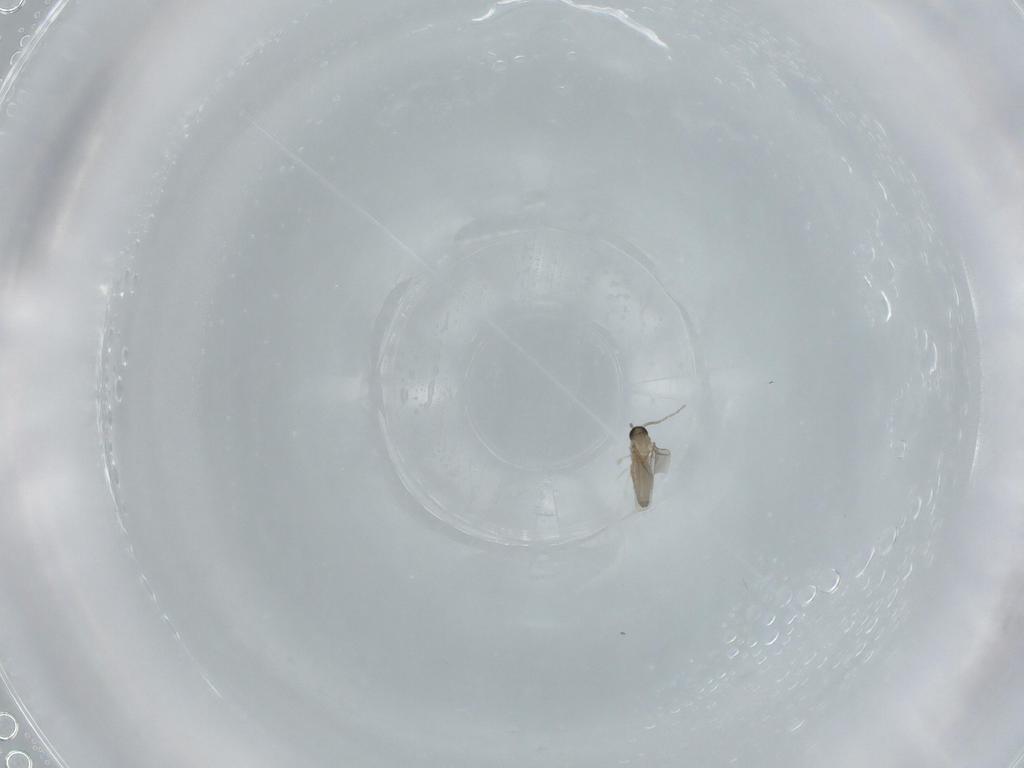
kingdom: Animalia
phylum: Arthropoda
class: Insecta
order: Diptera
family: Cecidomyiidae
